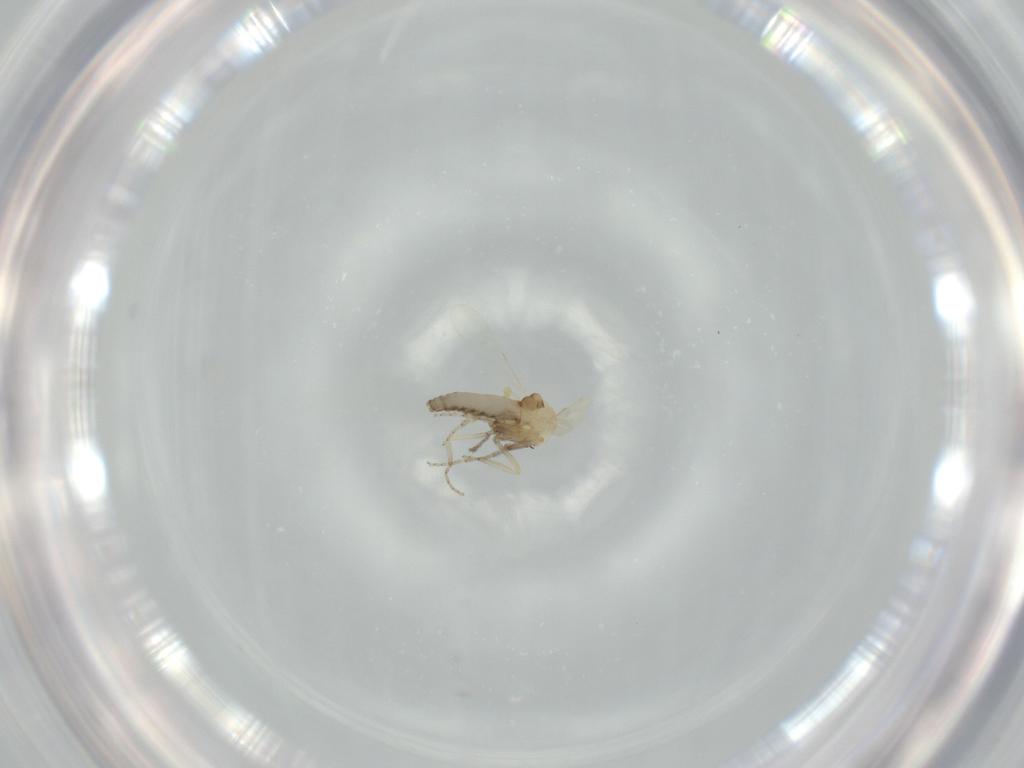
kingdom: Animalia
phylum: Arthropoda
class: Insecta
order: Diptera
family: Ceratopogonidae
